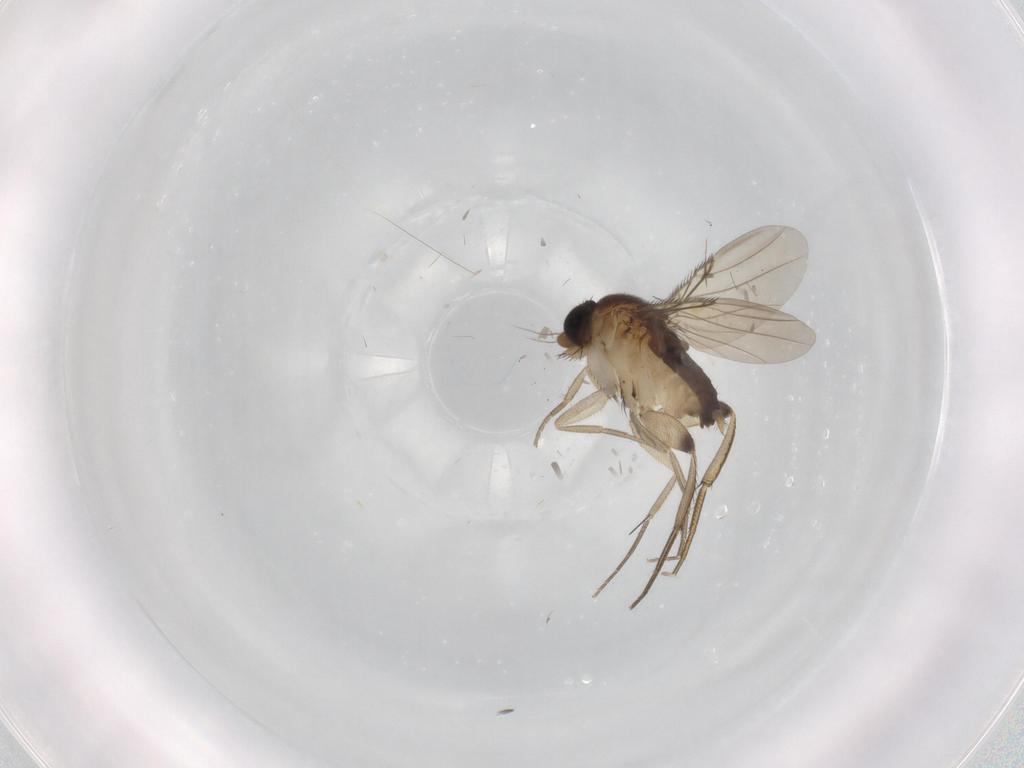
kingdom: Animalia
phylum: Arthropoda
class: Insecta
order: Diptera
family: Phoridae
